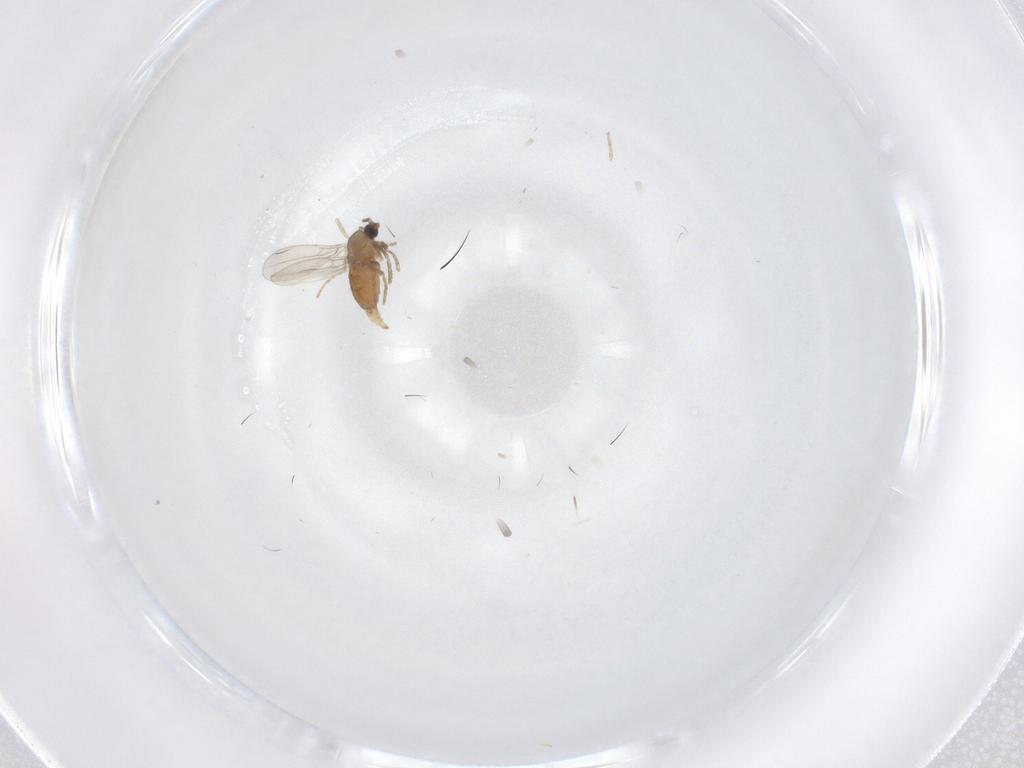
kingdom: Animalia
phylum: Arthropoda
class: Insecta
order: Diptera
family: Cecidomyiidae
